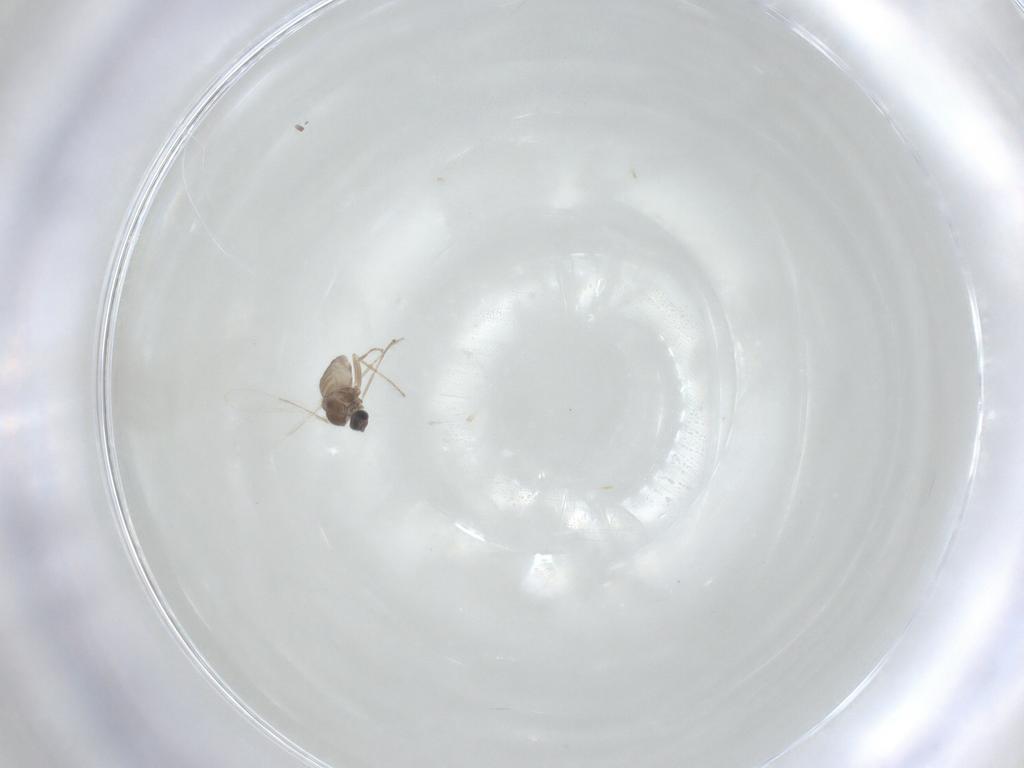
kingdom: Animalia
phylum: Arthropoda
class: Insecta
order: Diptera
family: Cecidomyiidae
